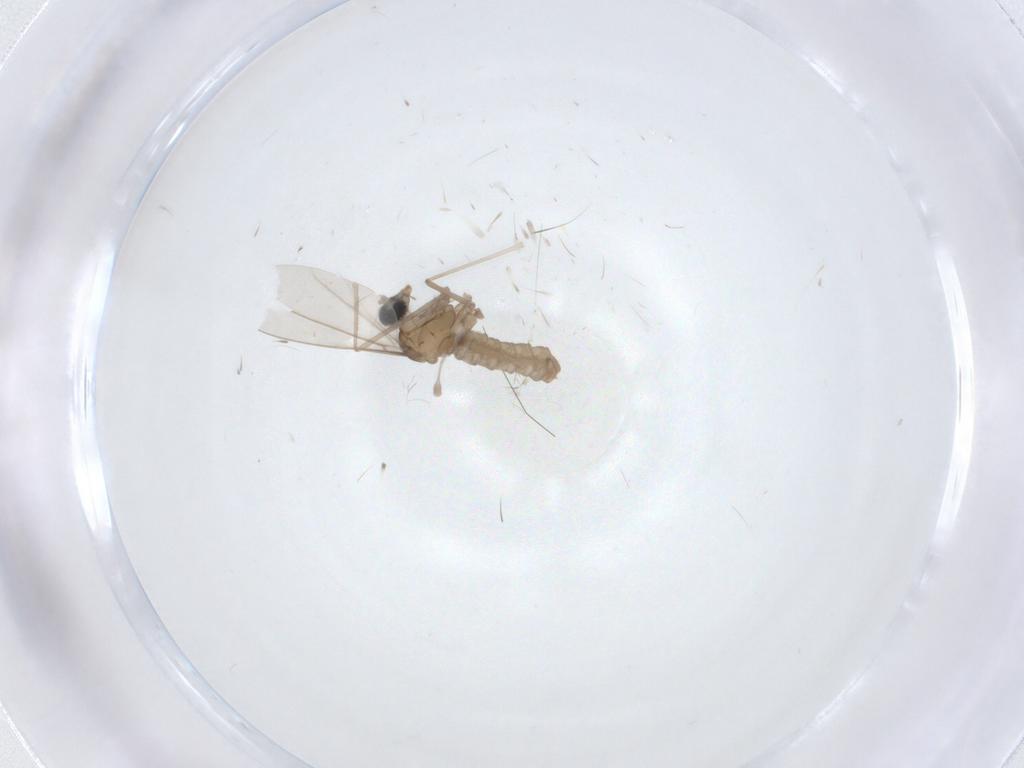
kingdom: Animalia
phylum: Arthropoda
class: Insecta
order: Diptera
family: Cecidomyiidae
